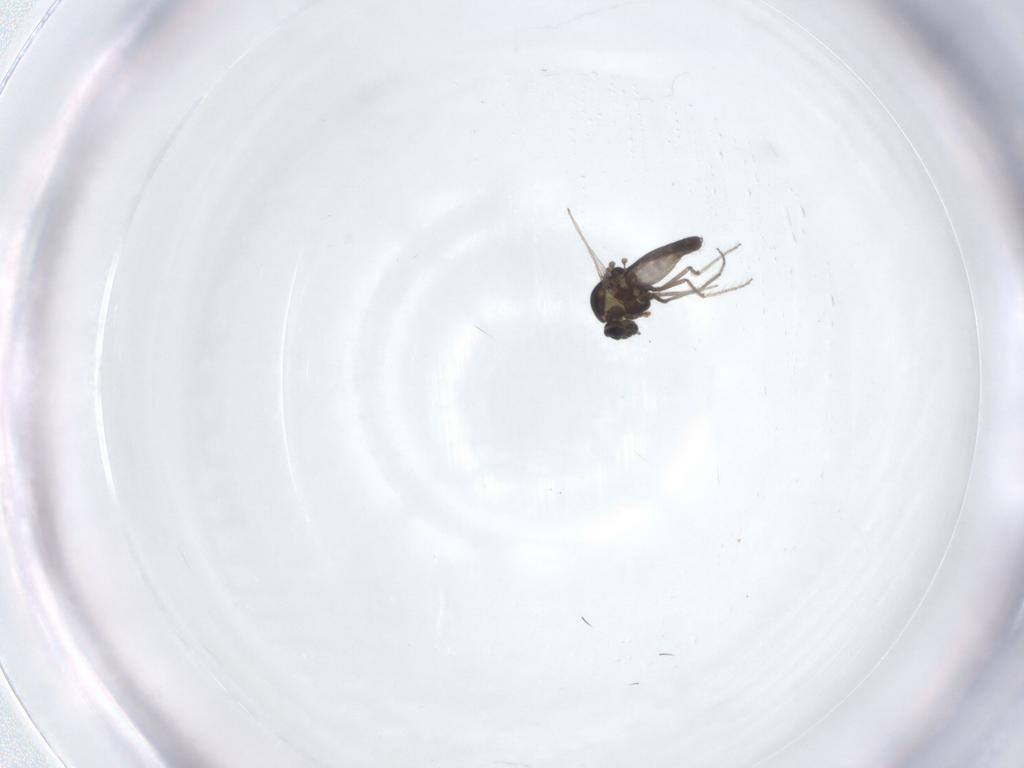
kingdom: Animalia
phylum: Arthropoda
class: Insecta
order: Diptera
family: Ceratopogonidae
